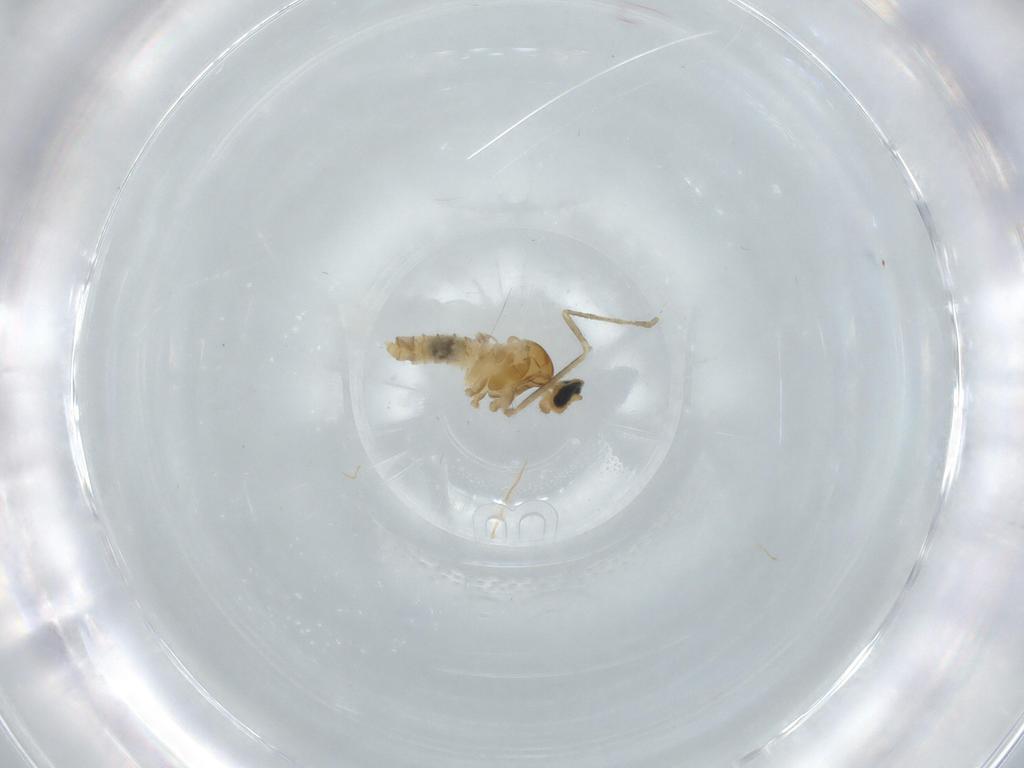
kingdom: Animalia
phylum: Arthropoda
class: Insecta
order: Diptera
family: Cecidomyiidae
